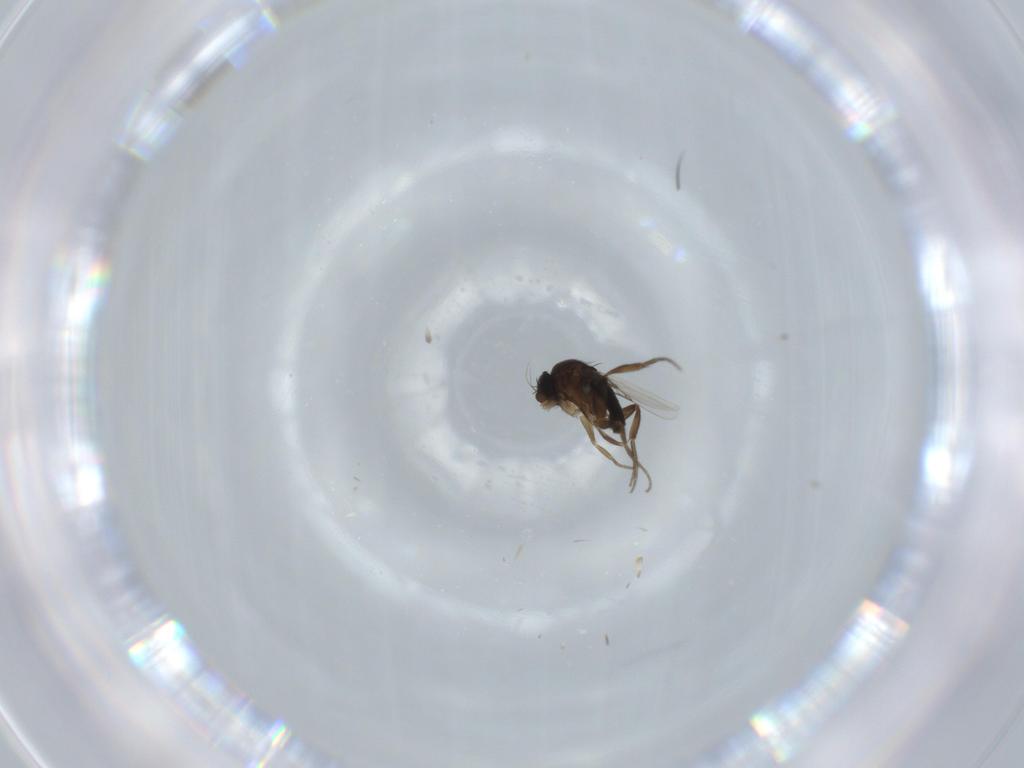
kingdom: Animalia
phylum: Arthropoda
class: Insecta
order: Diptera
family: Phoridae
